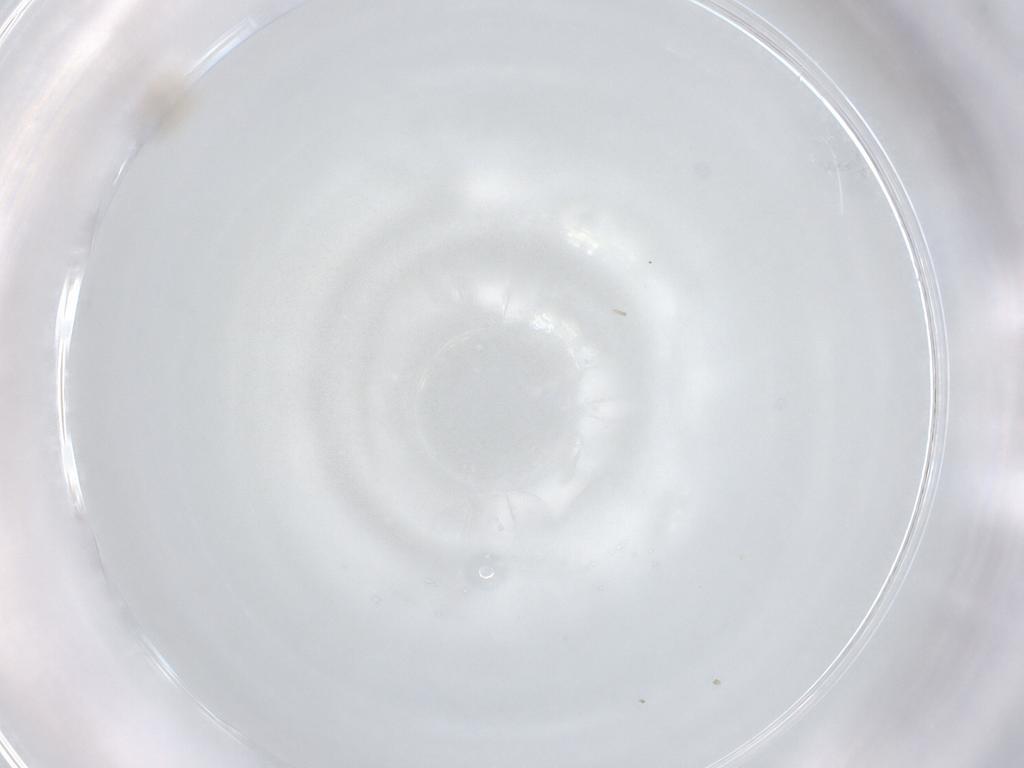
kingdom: Animalia
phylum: Arthropoda
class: Insecta
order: Diptera
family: Cecidomyiidae
